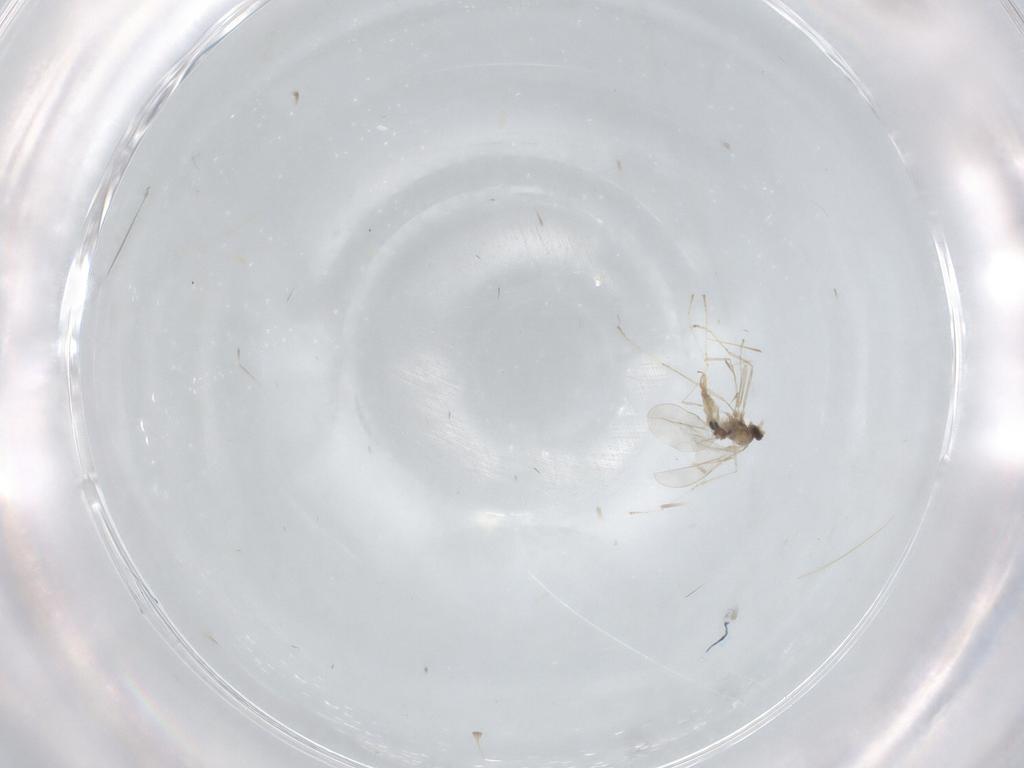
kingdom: Animalia
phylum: Arthropoda
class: Insecta
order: Diptera
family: Cecidomyiidae
